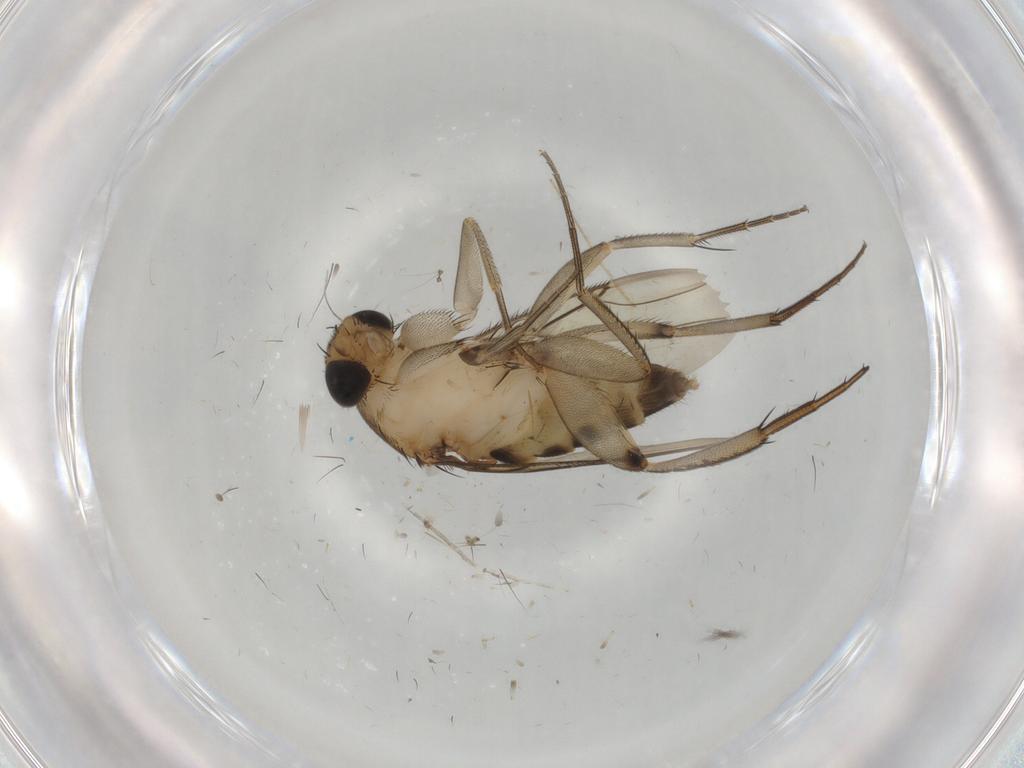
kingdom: Animalia
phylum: Arthropoda
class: Insecta
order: Diptera
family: Phoridae
